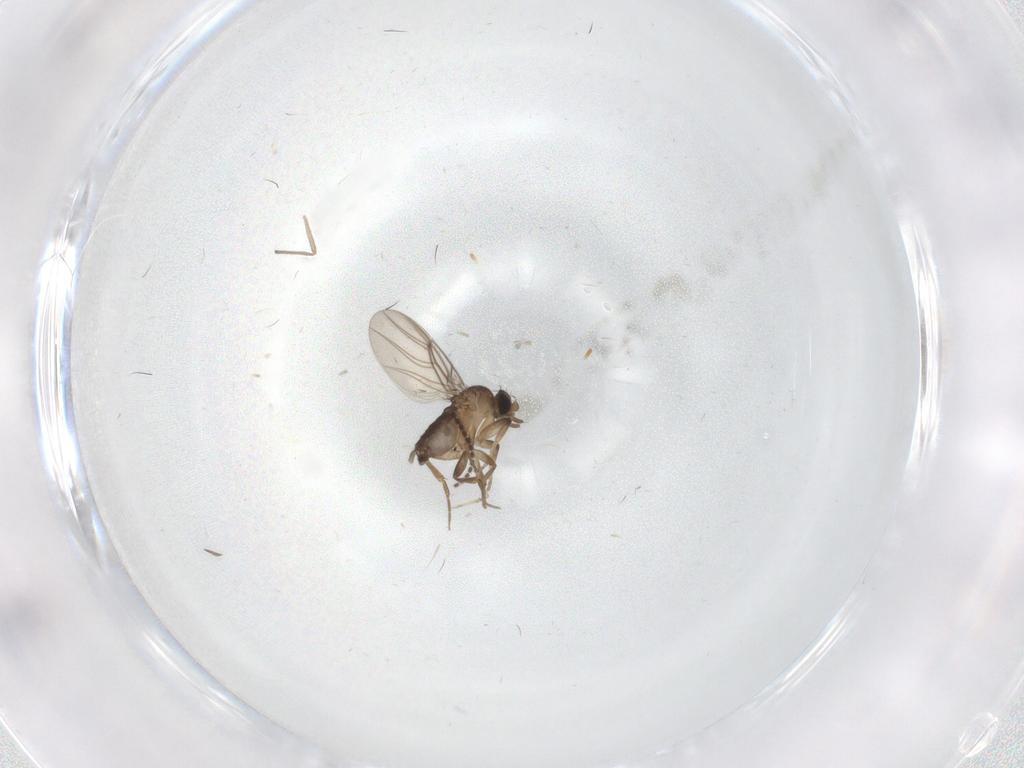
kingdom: Animalia
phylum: Arthropoda
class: Insecta
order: Diptera
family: Chironomidae
